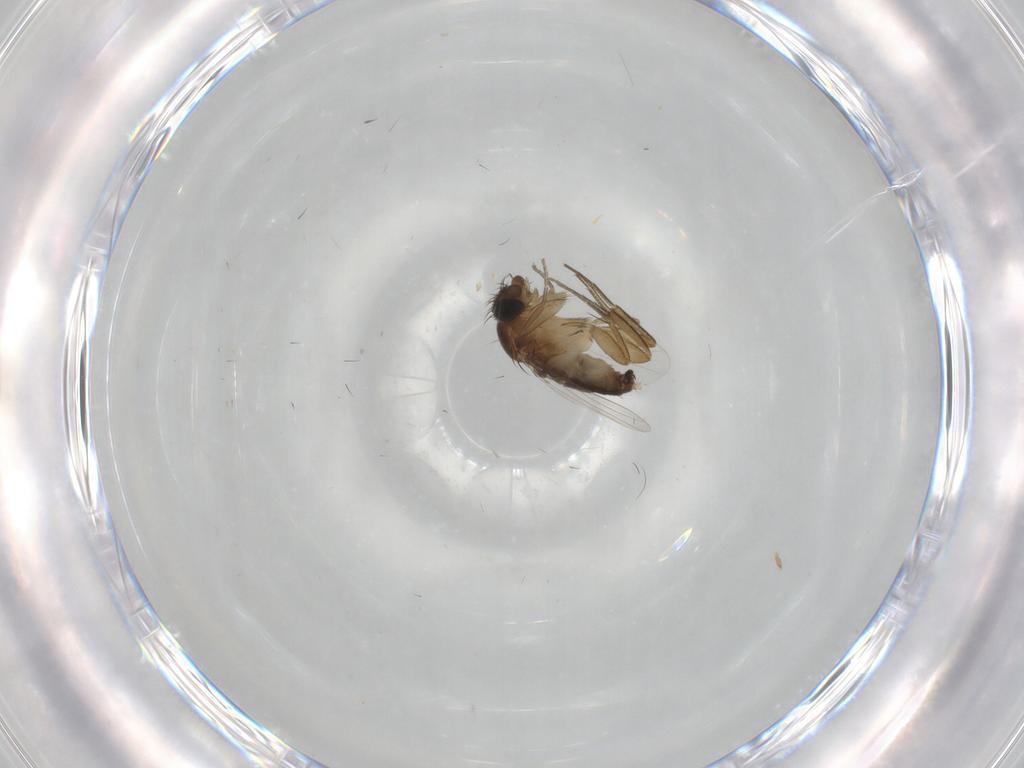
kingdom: Animalia
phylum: Arthropoda
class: Insecta
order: Diptera
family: Phoridae
